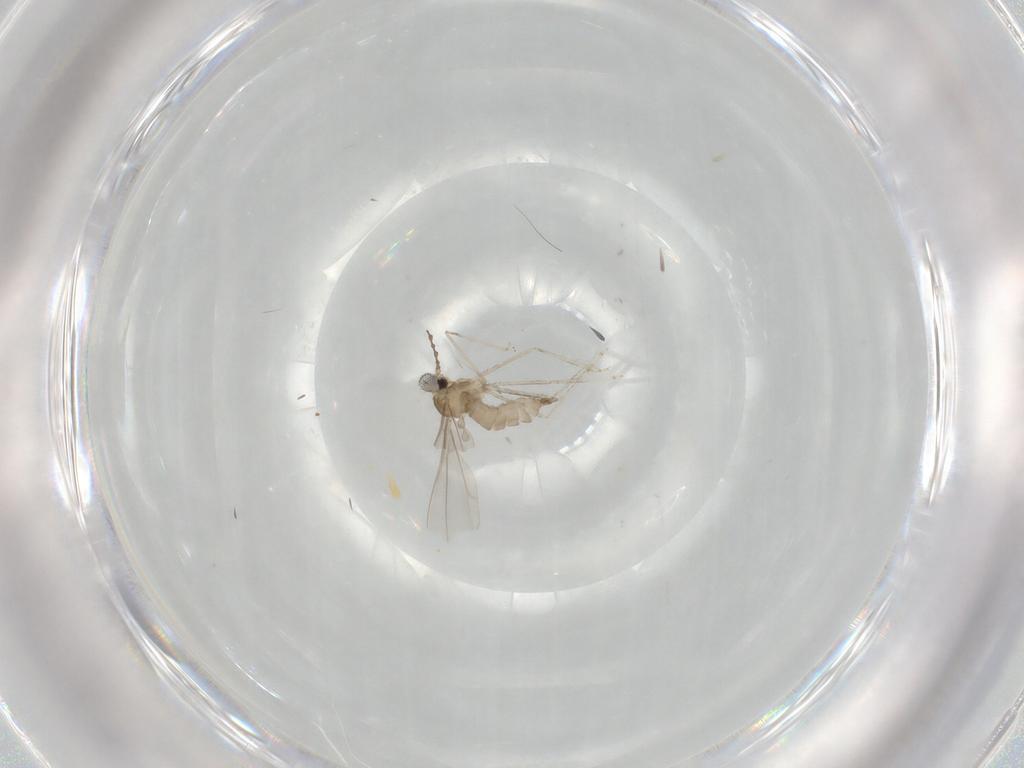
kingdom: Animalia
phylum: Arthropoda
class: Insecta
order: Diptera
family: Cecidomyiidae
